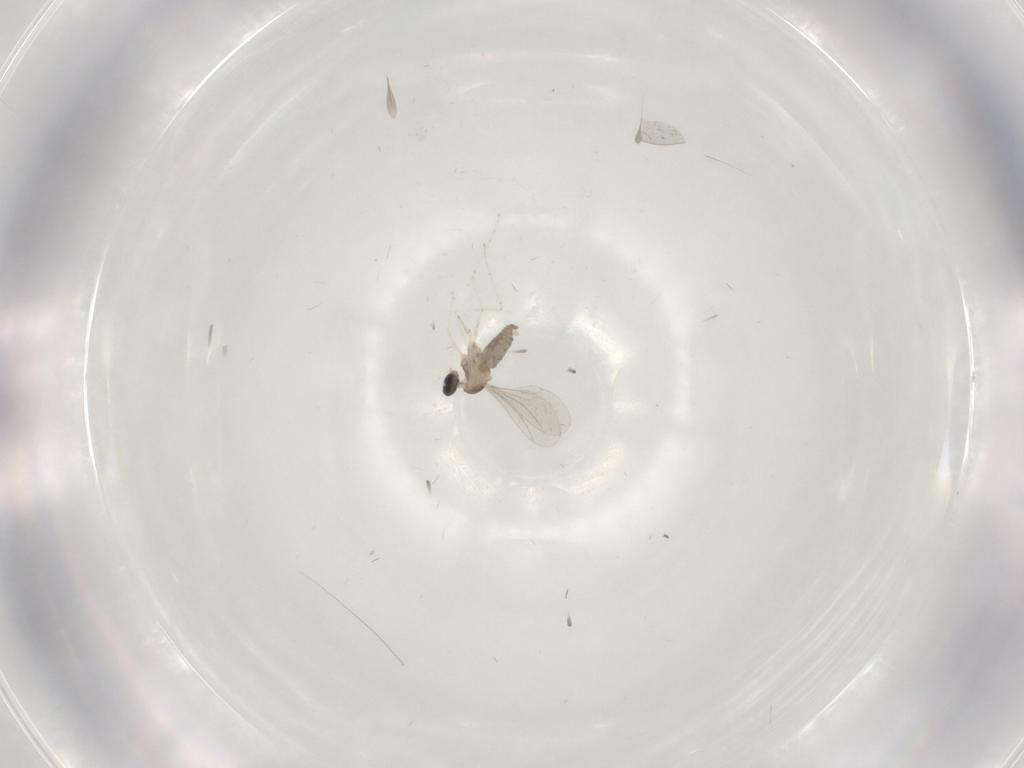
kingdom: Animalia
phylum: Arthropoda
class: Insecta
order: Diptera
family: Cecidomyiidae
